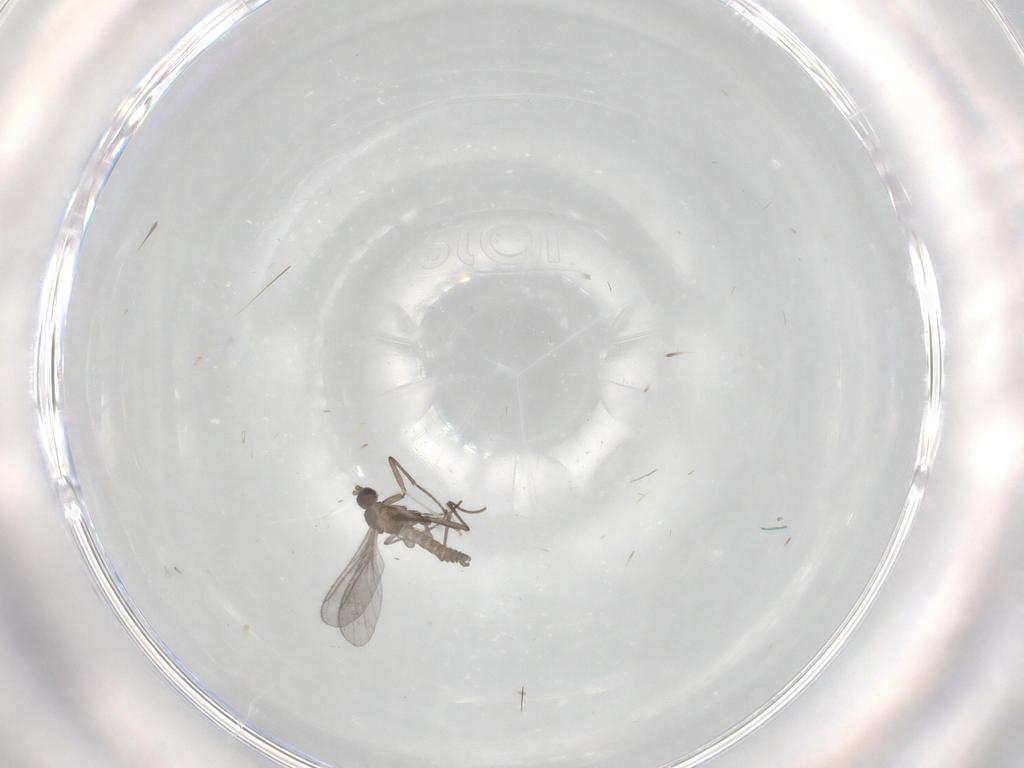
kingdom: Animalia
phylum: Arthropoda
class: Insecta
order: Diptera
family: Sciaridae
